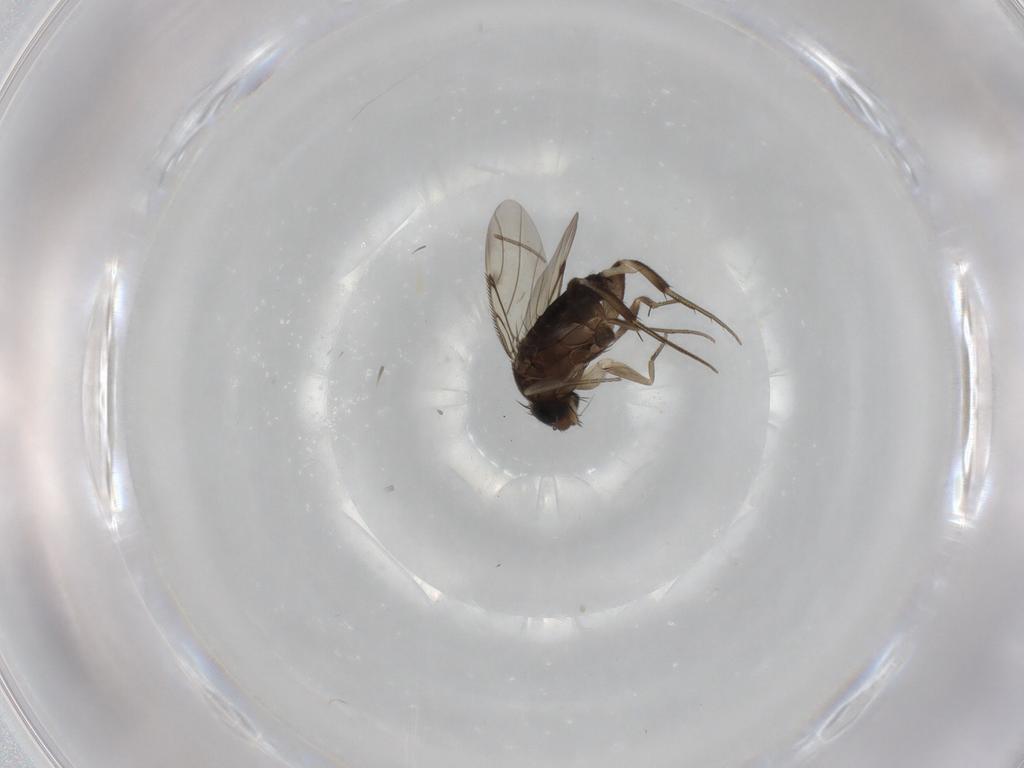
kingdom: Animalia
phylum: Arthropoda
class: Insecta
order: Diptera
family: Phoridae
